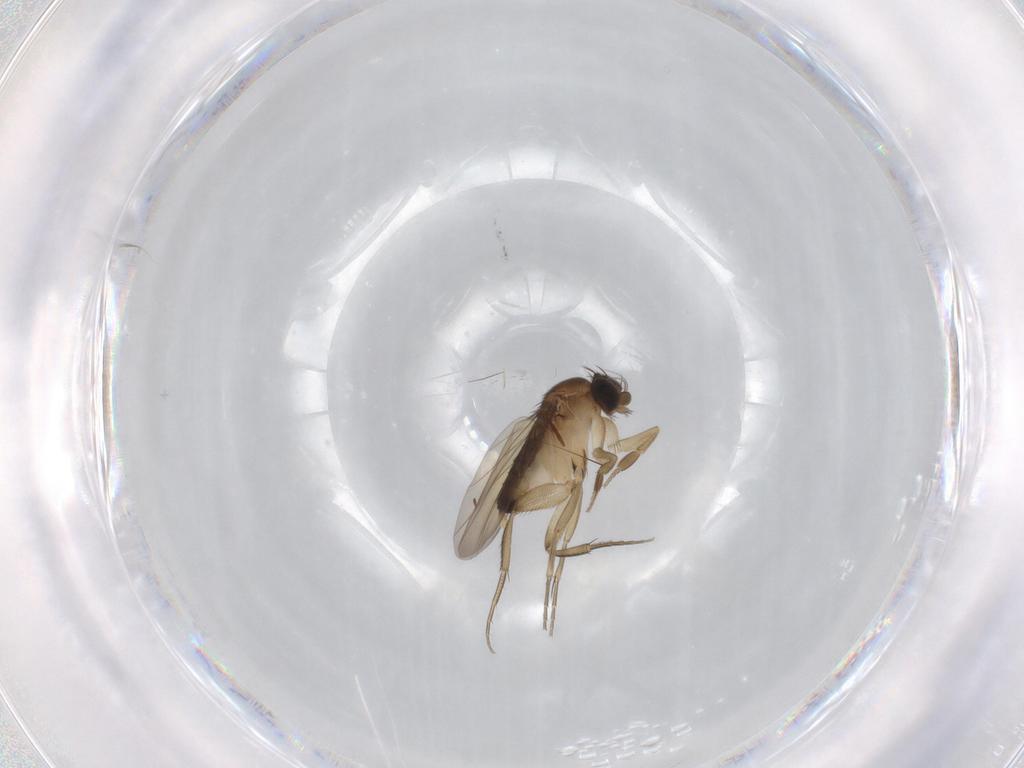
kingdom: Animalia
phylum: Arthropoda
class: Insecta
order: Diptera
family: Phoridae
